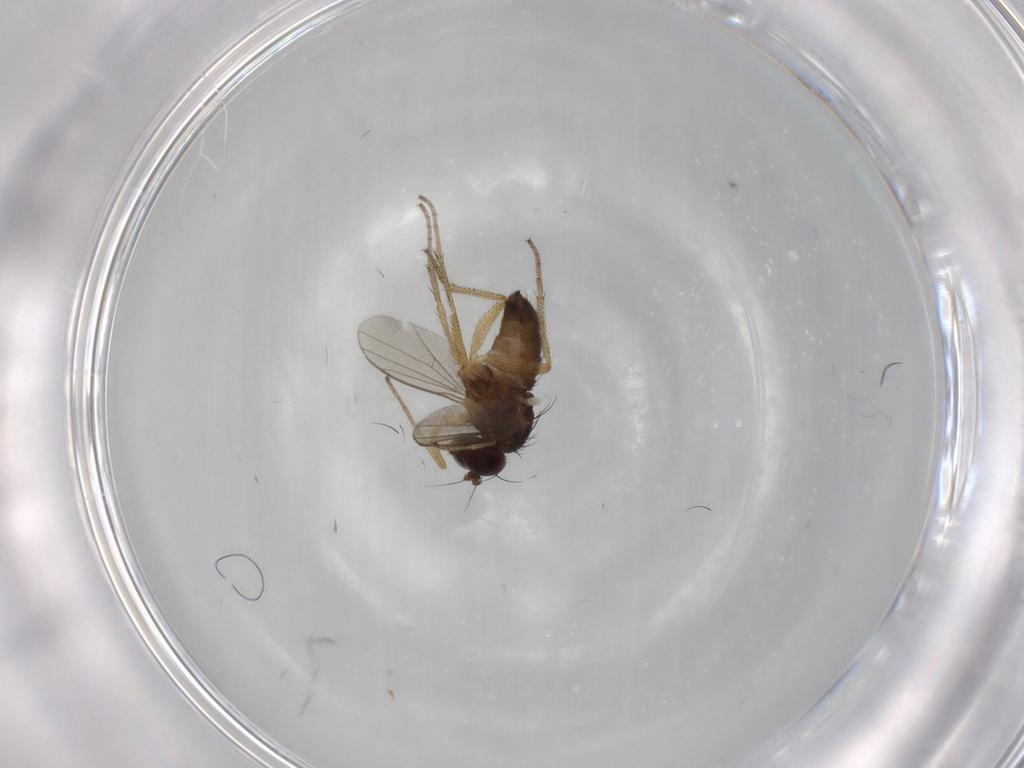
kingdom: Animalia
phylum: Arthropoda
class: Insecta
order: Diptera
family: Dolichopodidae
